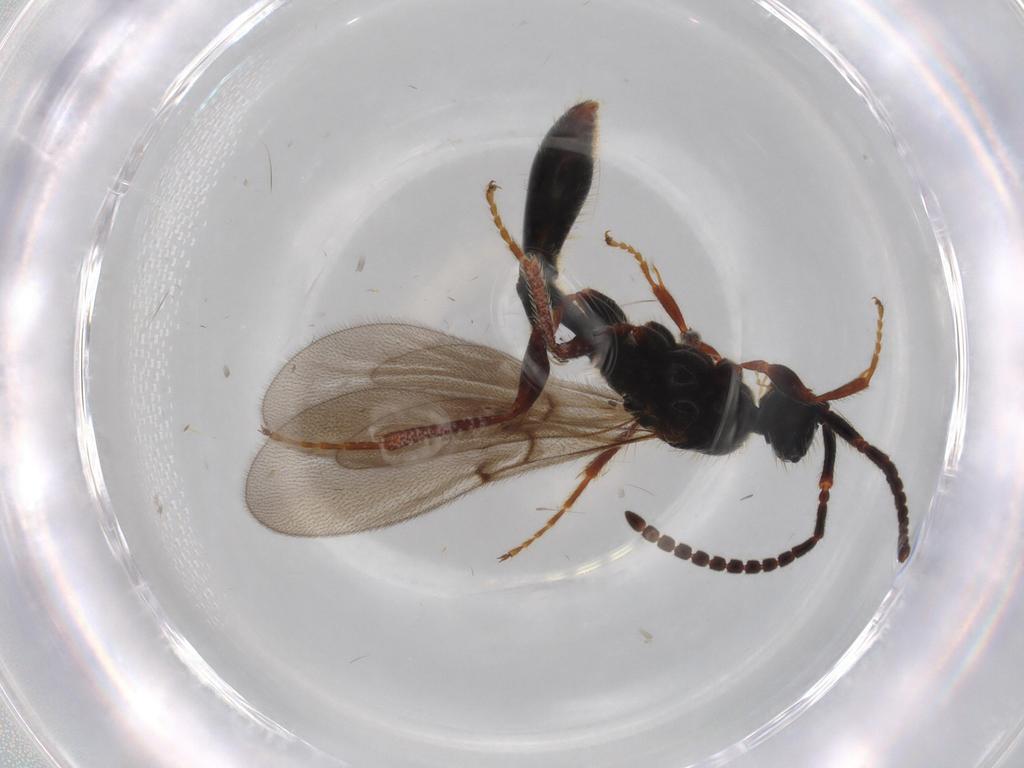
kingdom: Animalia
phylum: Arthropoda
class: Insecta
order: Hymenoptera
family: Diapriidae
